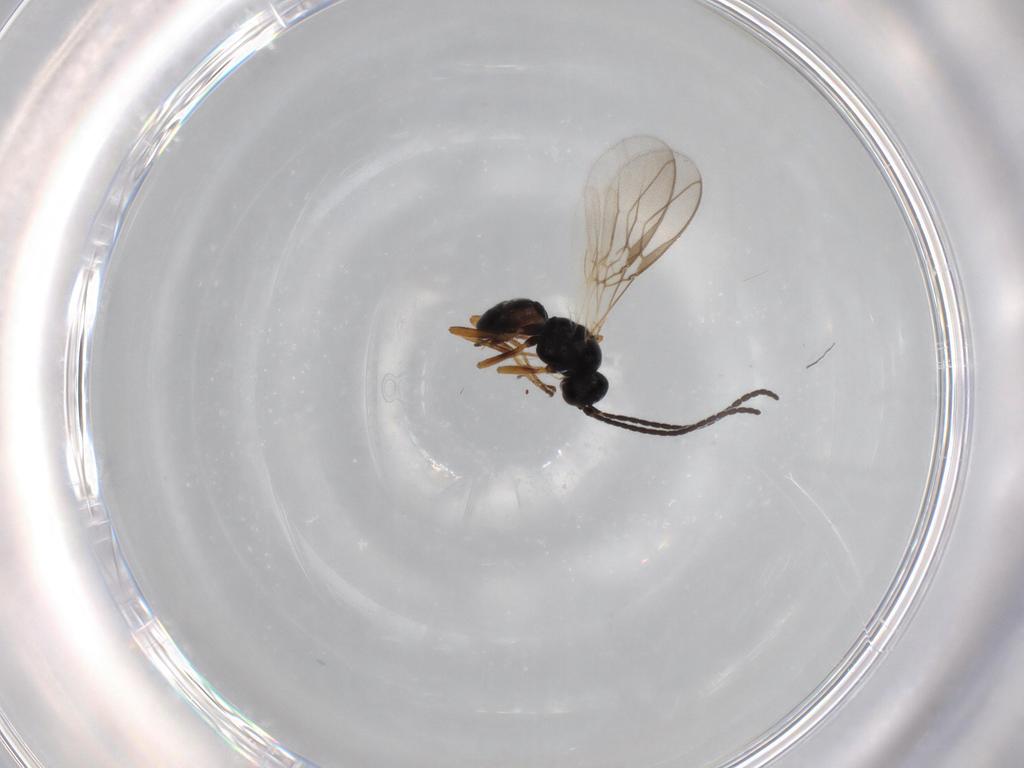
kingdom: Animalia
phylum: Arthropoda
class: Insecta
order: Hymenoptera
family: Braconidae
